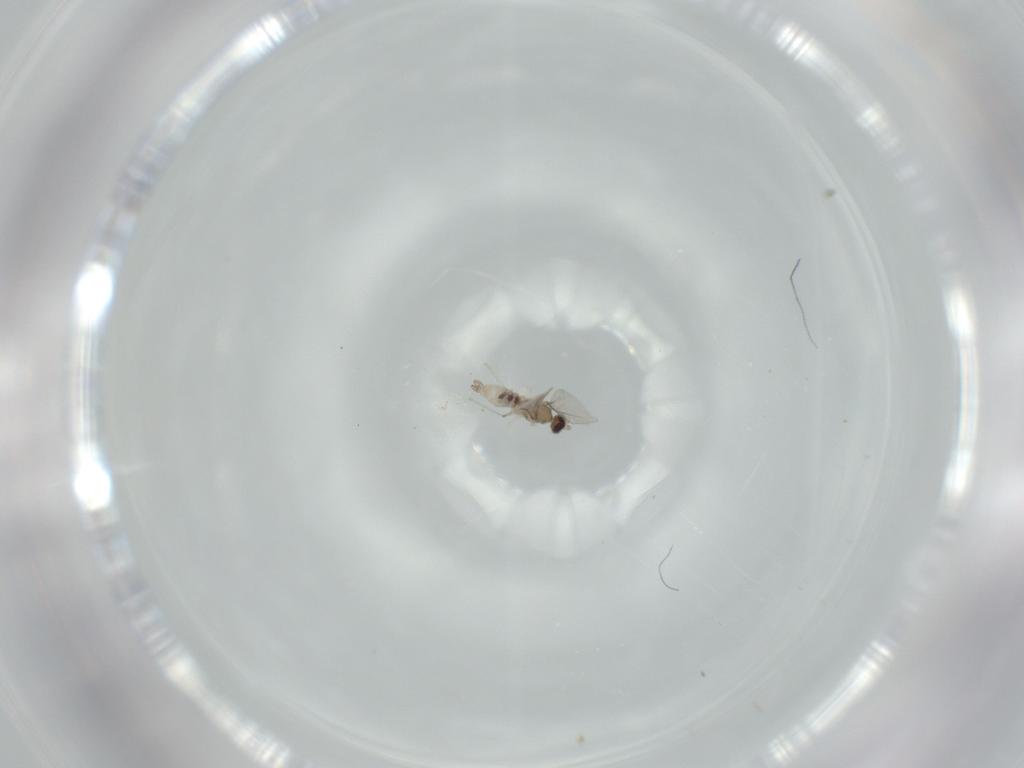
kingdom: Animalia
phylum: Arthropoda
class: Insecta
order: Diptera
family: Cecidomyiidae
